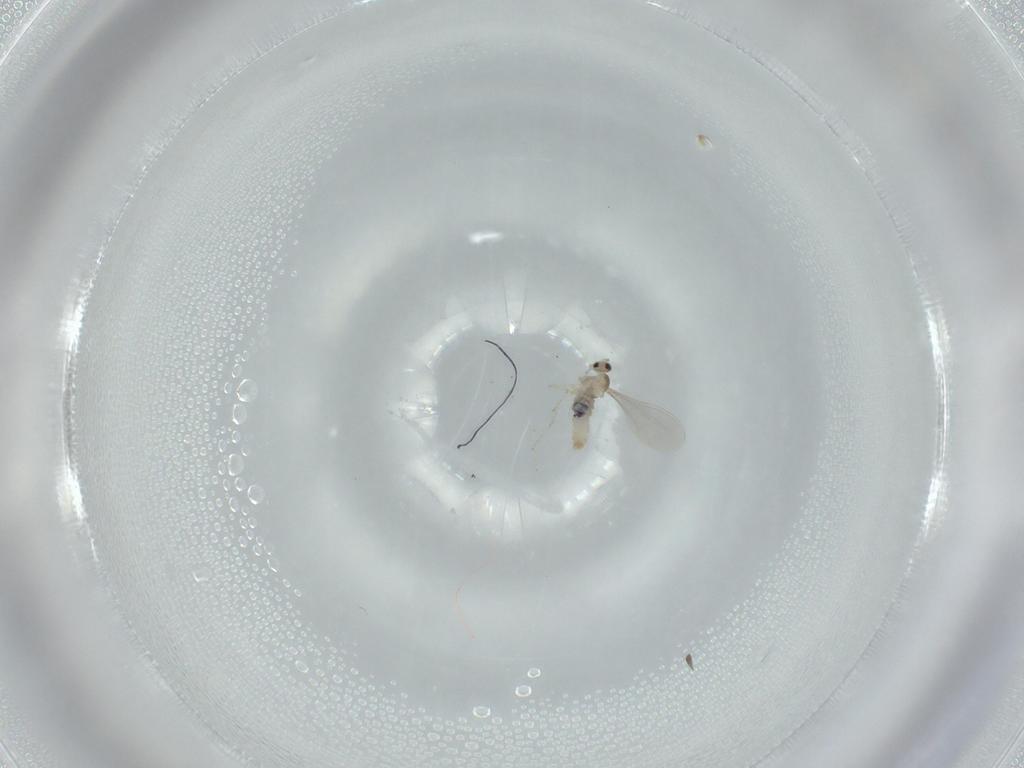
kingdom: Animalia
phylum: Arthropoda
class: Insecta
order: Diptera
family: Cecidomyiidae
